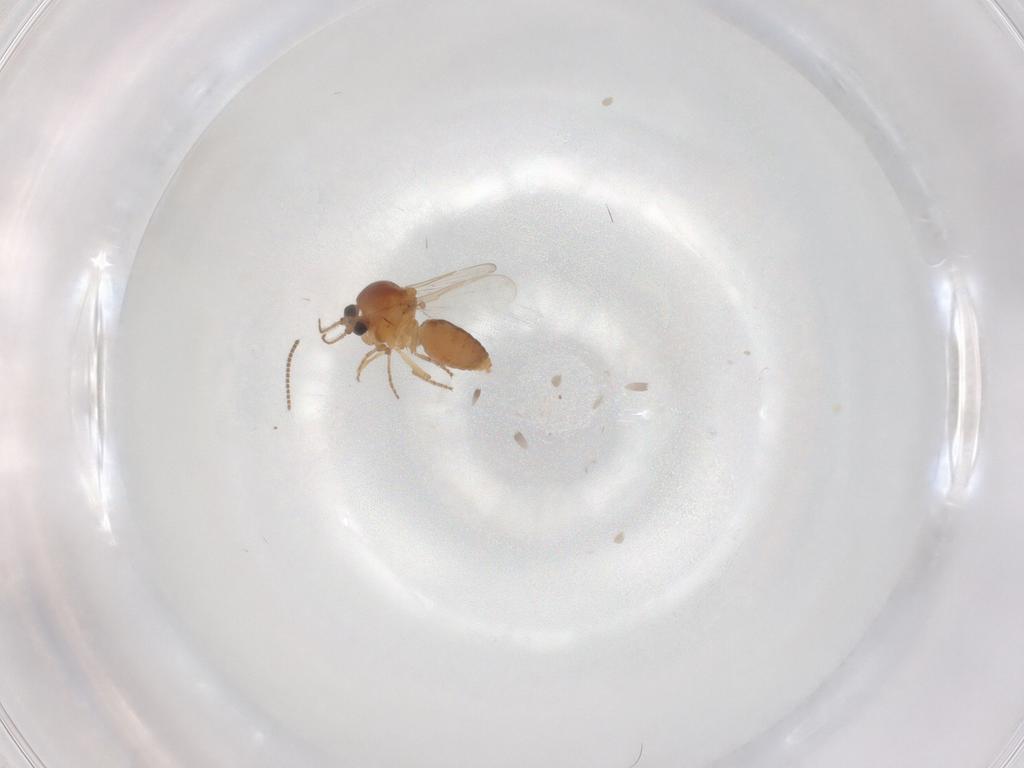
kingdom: Animalia
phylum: Arthropoda
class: Insecta
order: Diptera
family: Ceratopogonidae
